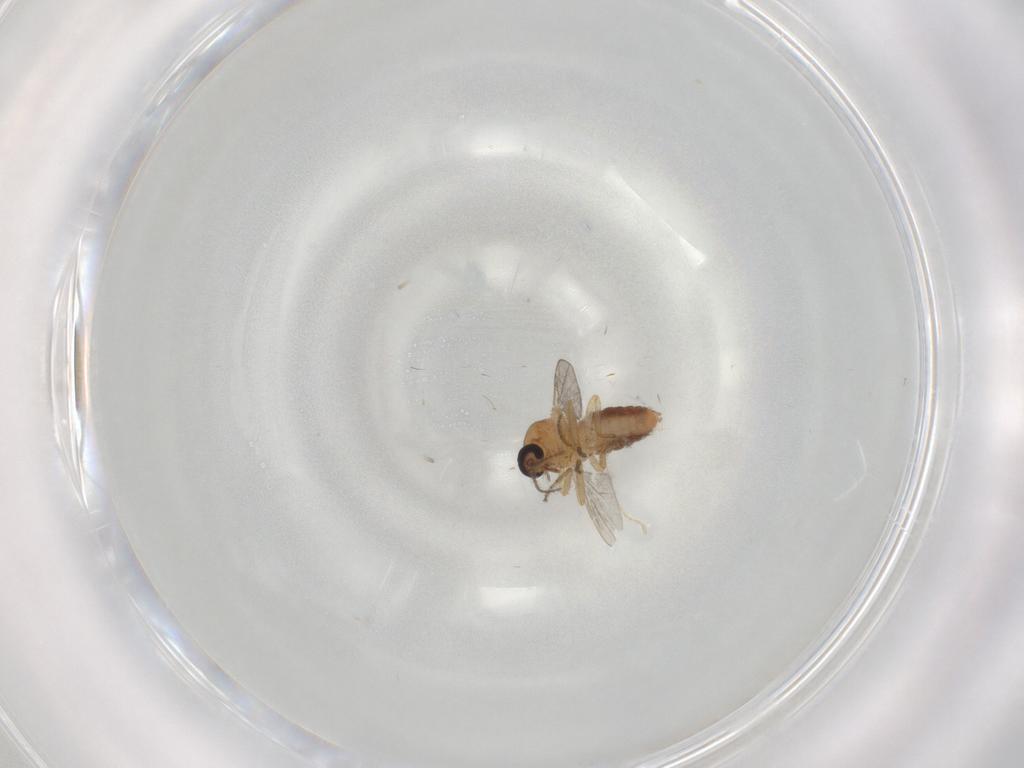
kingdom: Animalia
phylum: Arthropoda
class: Insecta
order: Diptera
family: Ceratopogonidae
